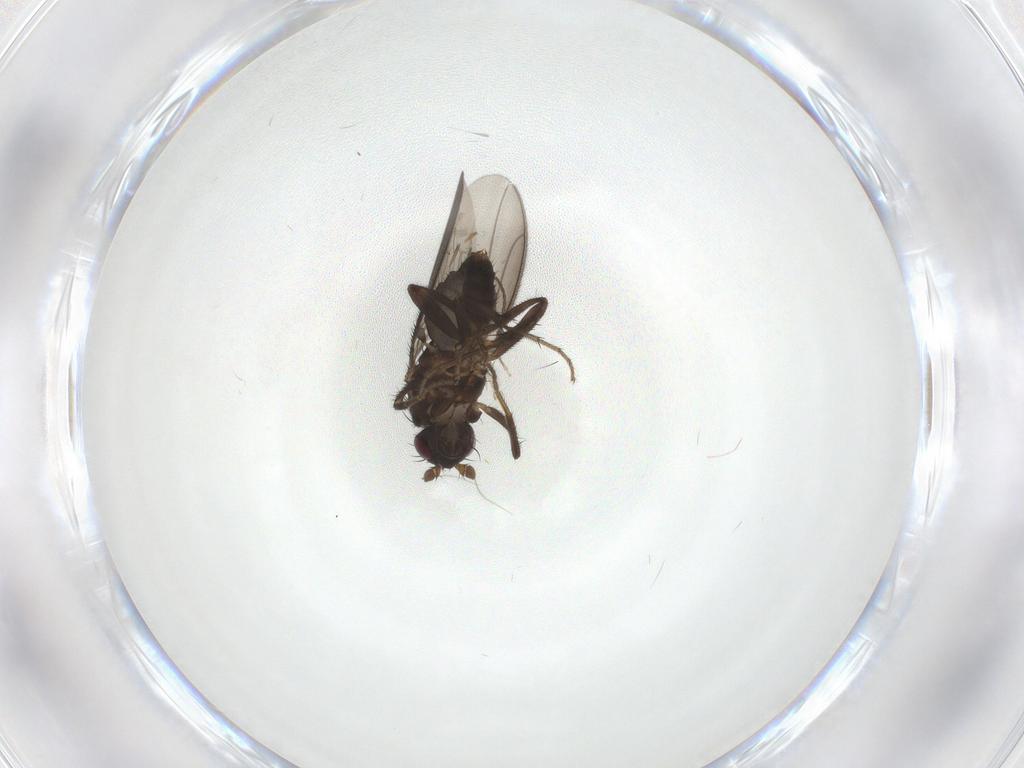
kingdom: Animalia
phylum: Arthropoda
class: Insecta
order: Diptera
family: Sphaeroceridae
